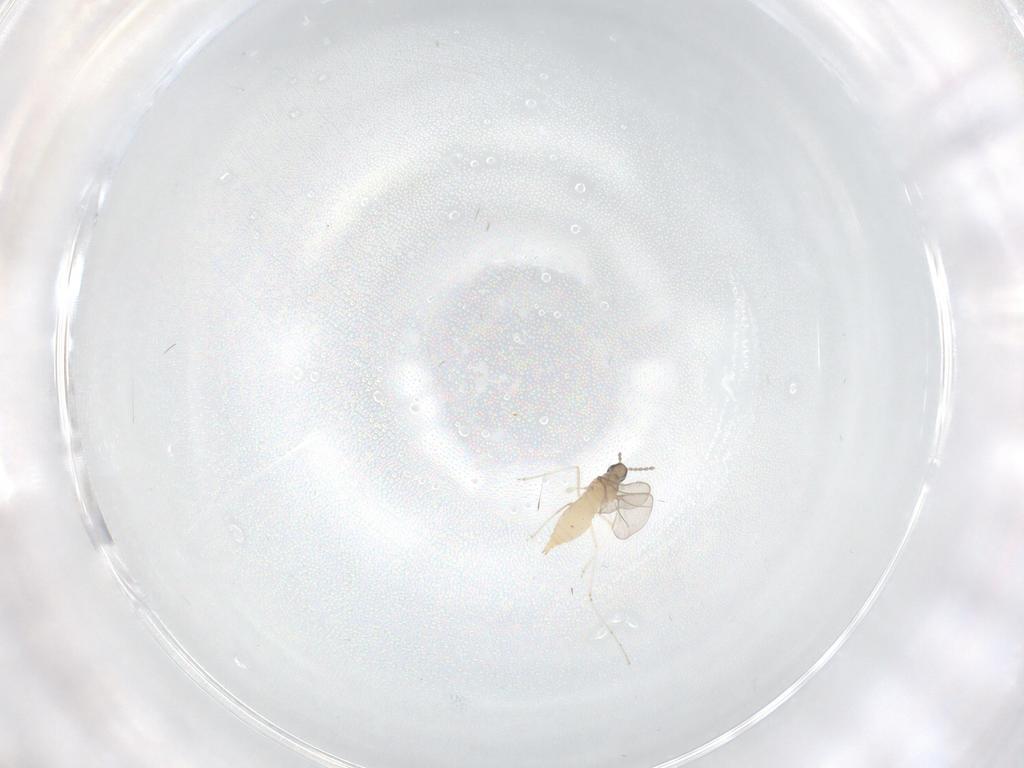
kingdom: Animalia
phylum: Arthropoda
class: Insecta
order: Diptera
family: Cecidomyiidae
